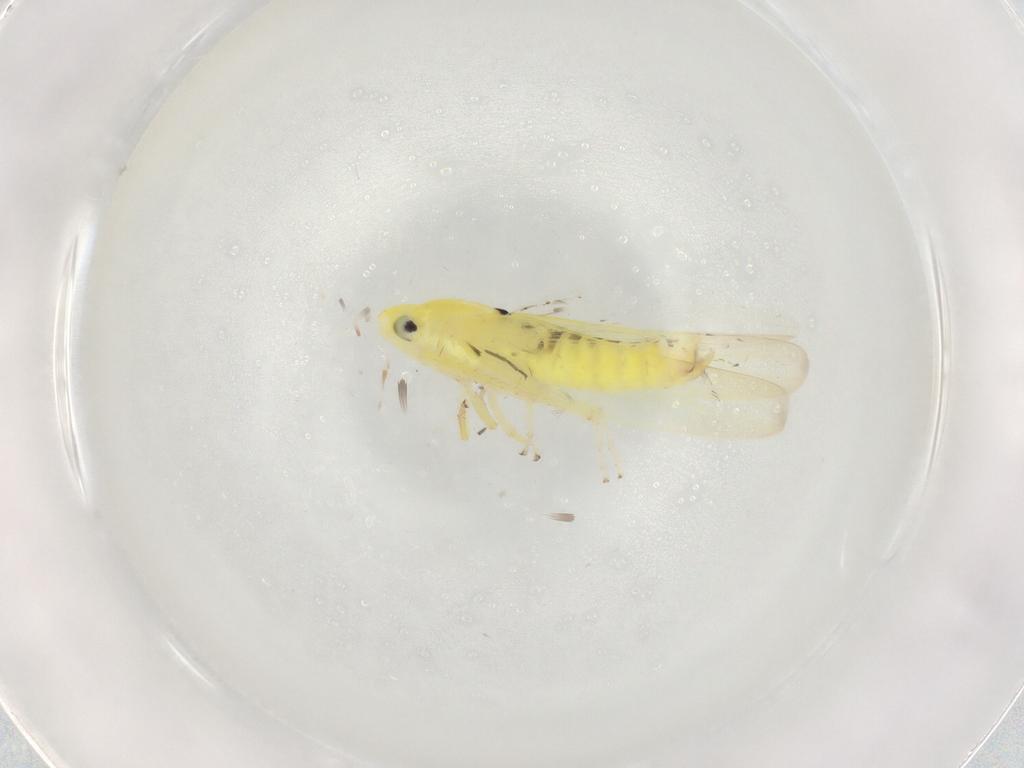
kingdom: Animalia
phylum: Arthropoda
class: Insecta
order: Hemiptera
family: Cicadellidae
